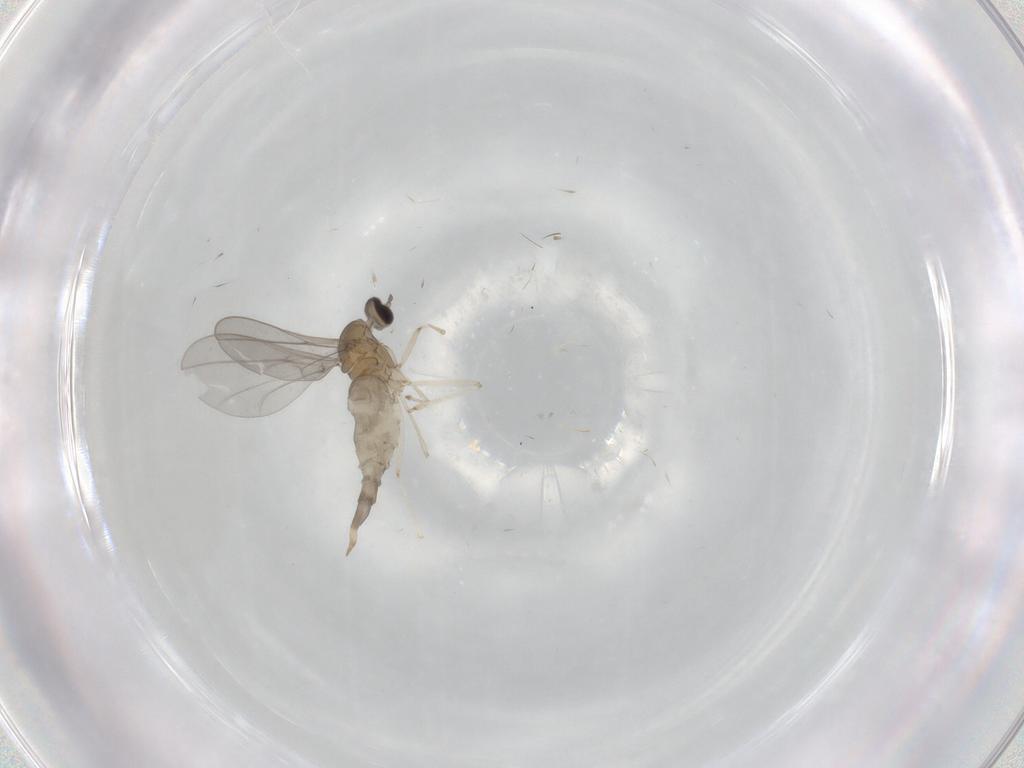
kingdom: Animalia
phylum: Arthropoda
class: Insecta
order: Diptera
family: Cecidomyiidae
